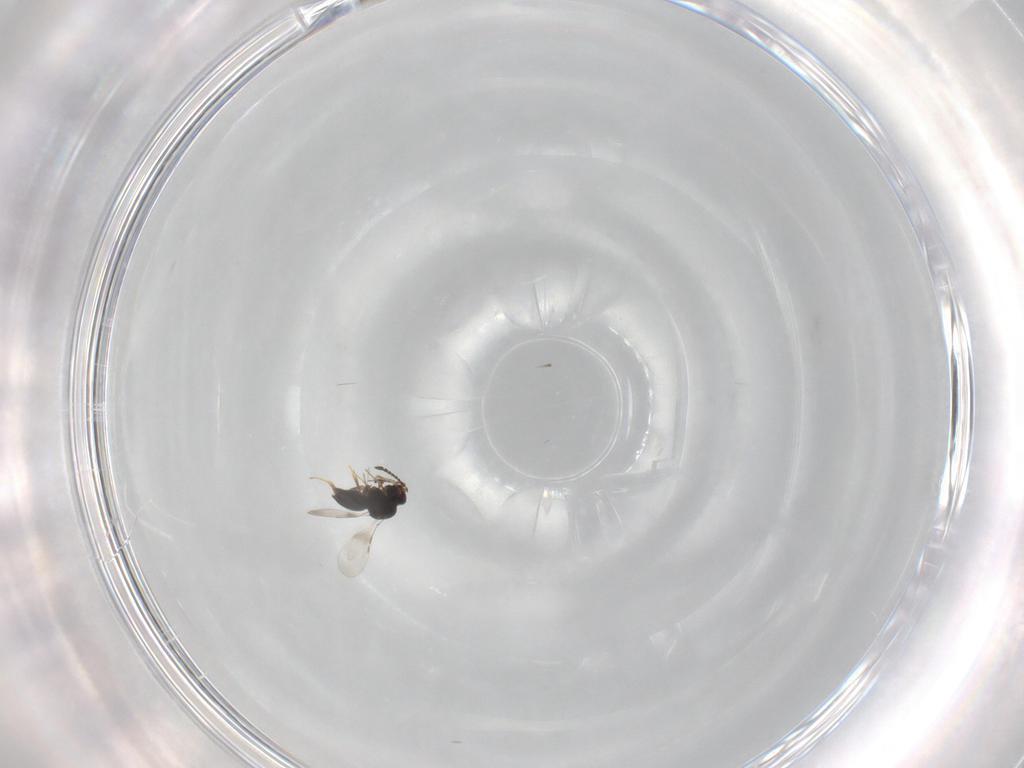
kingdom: Animalia
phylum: Arthropoda
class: Insecta
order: Hymenoptera
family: Ceraphronidae
